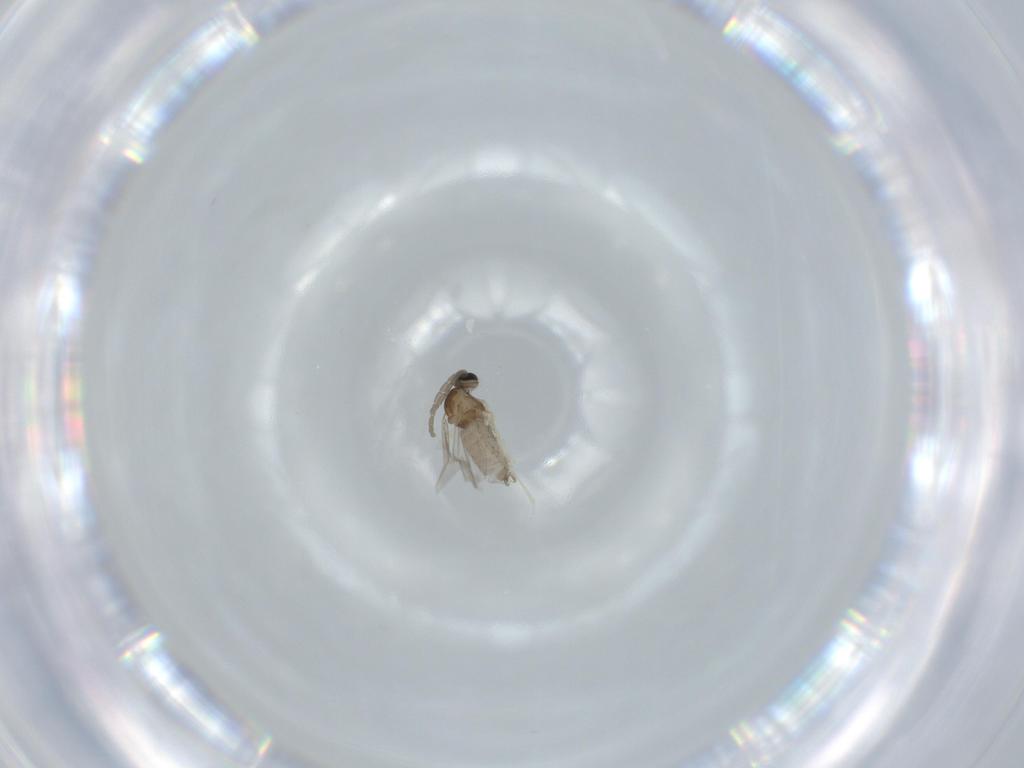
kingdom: Animalia
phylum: Arthropoda
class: Insecta
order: Diptera
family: Cecidomyiidae
